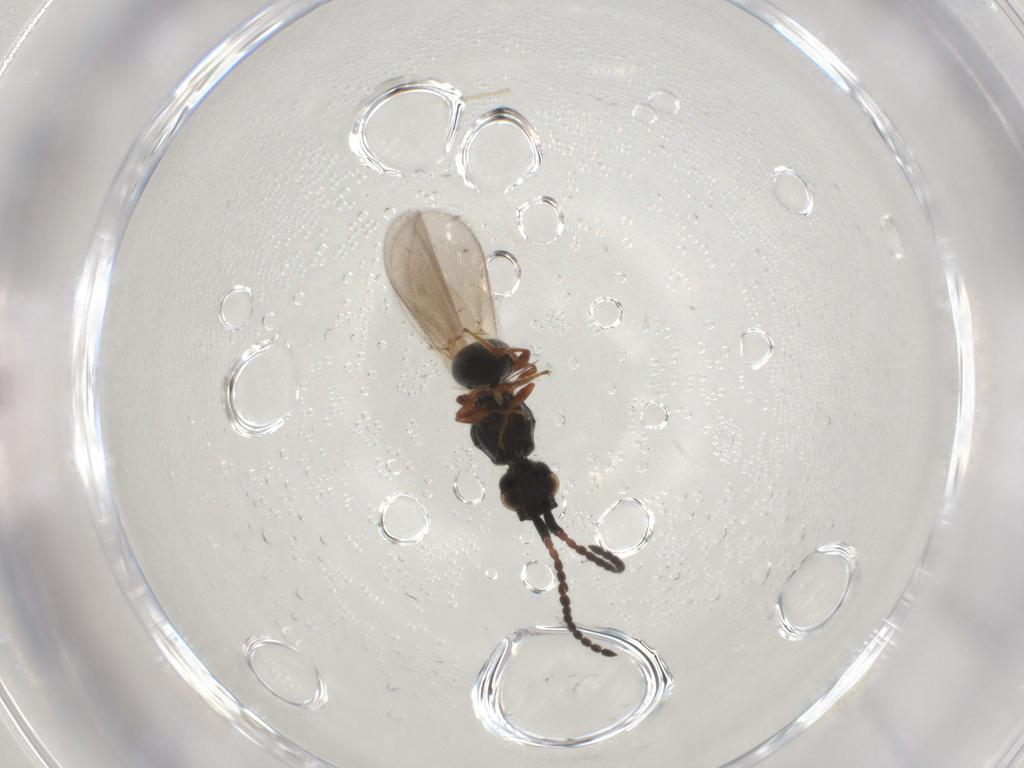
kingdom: Animalia
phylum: Arthropoda
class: Insecta
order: Hymenoptera
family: Diapriidae
